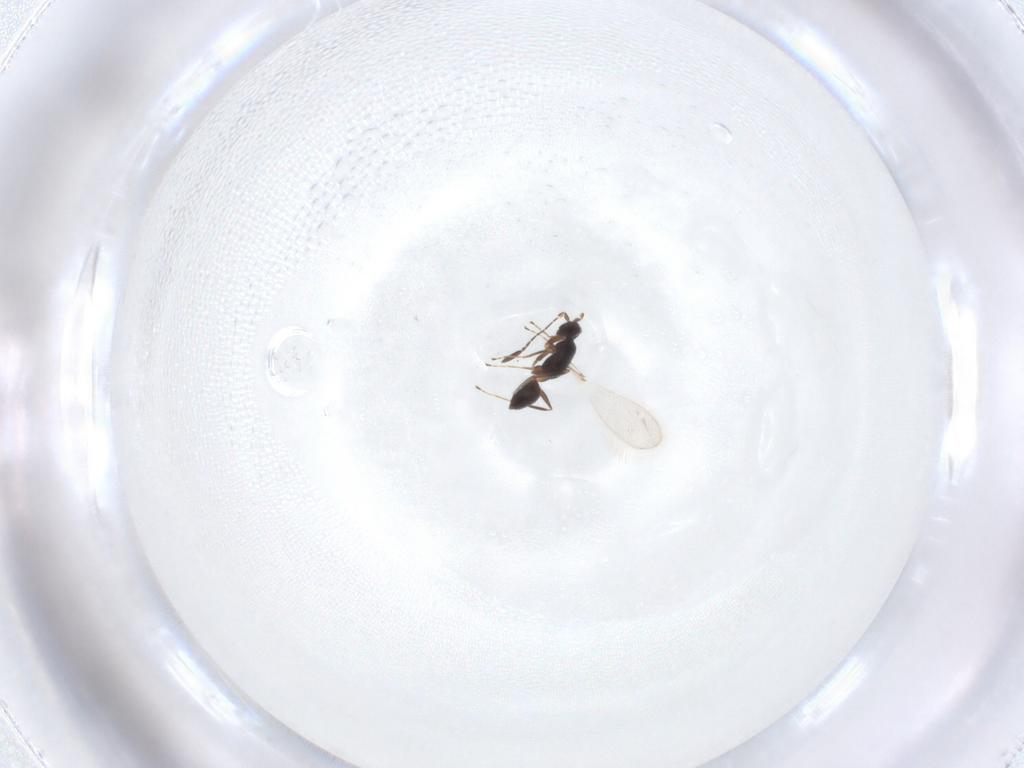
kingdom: Animalia
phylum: Arthropoda
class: Insecta
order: Hymenoptera
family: Mymaridae
